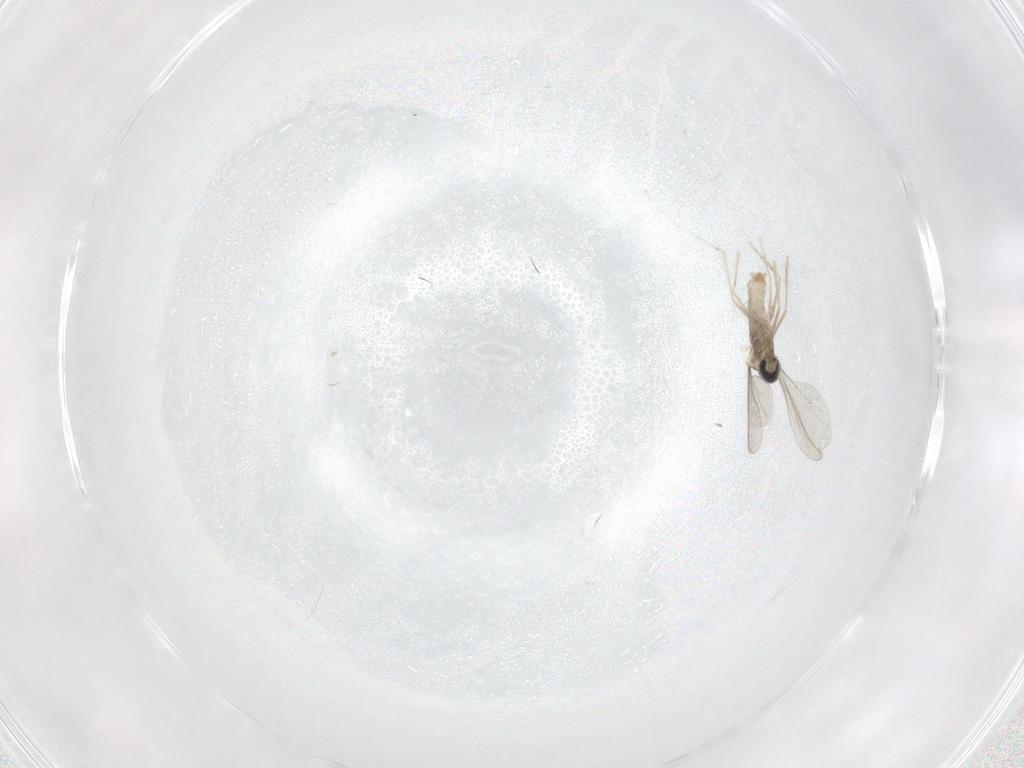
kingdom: Animalia
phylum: Arthropoda
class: Insecta
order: Diptera
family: Cecidomyiidae
